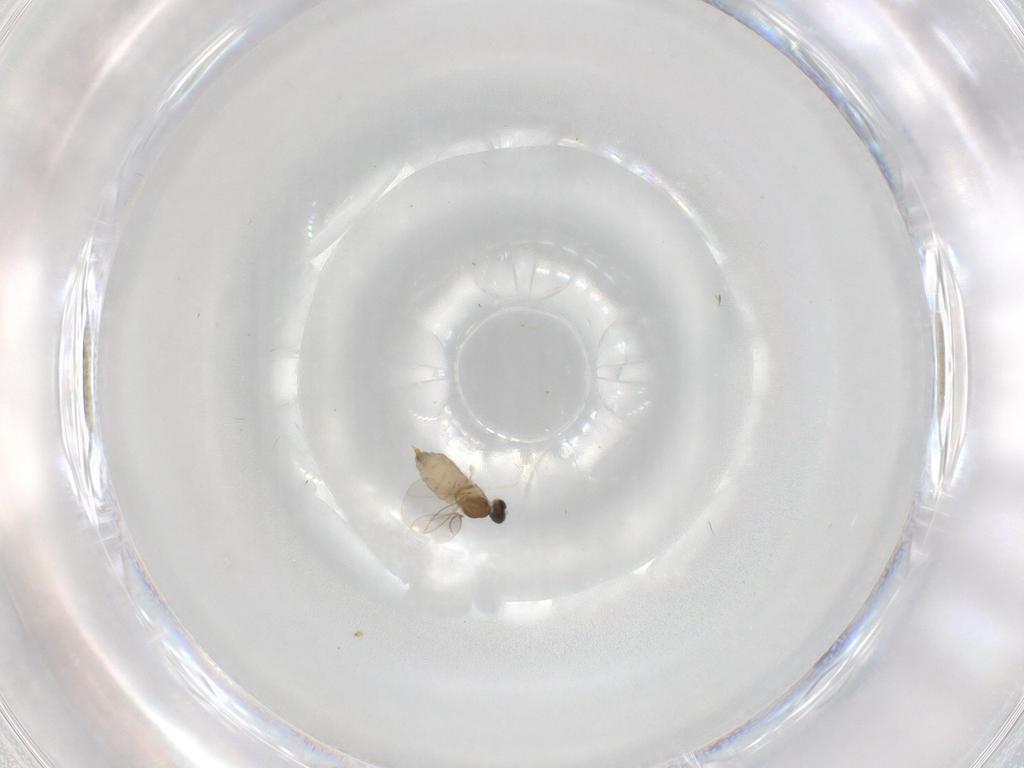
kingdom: Animalia
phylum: Arthropoda
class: Insecta
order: Diptera
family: Cecidomyiidae
